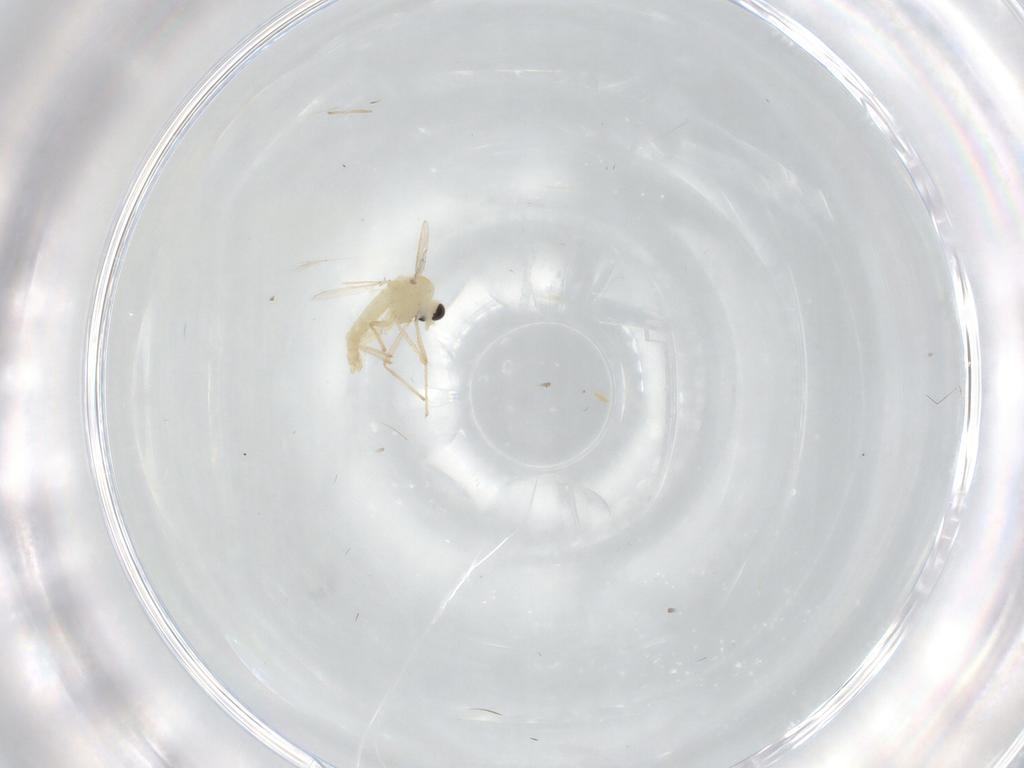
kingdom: Animalia
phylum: Arthropoda
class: Insecta
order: Diptera
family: Chironomidae
